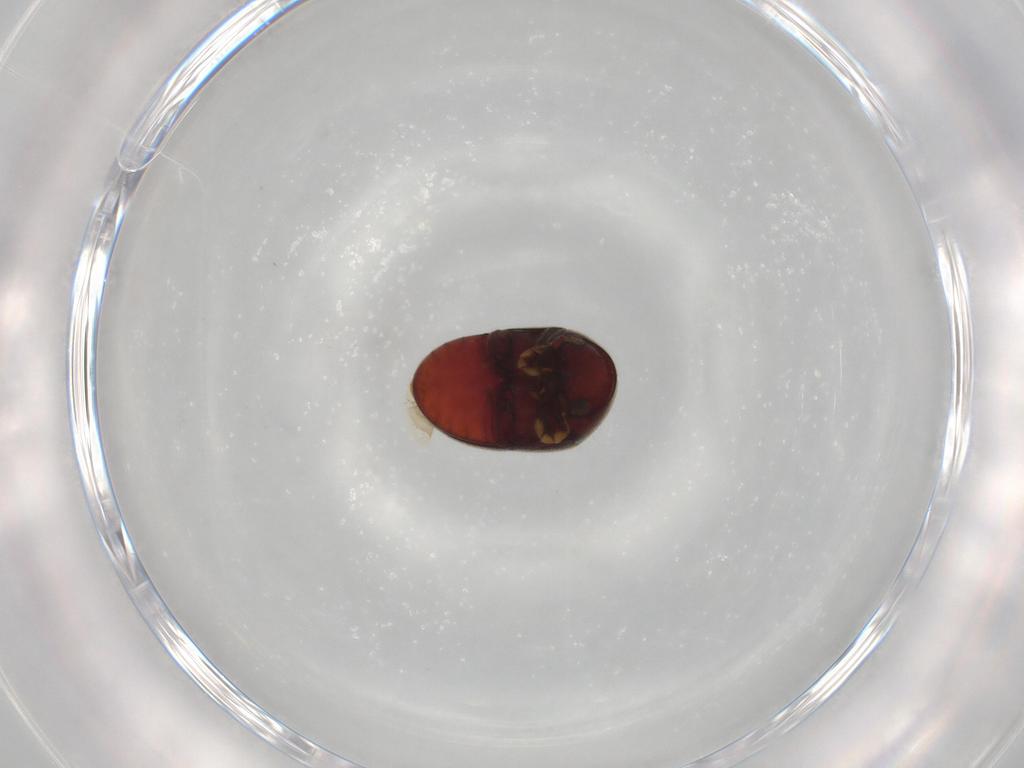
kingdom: Animalia
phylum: Arthropoda
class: Insecta
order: Coleoptera
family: Ptinidae
